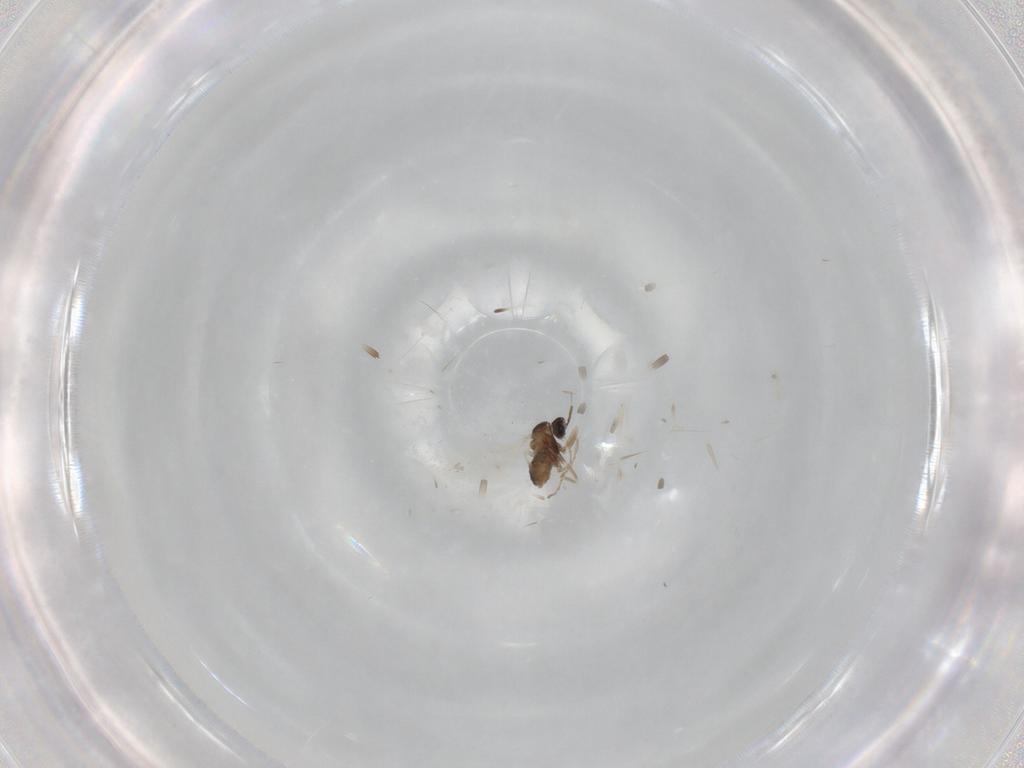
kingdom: Animalia
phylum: Arthropoda
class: Insecta
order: Diptera
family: Cecidomyiidae
